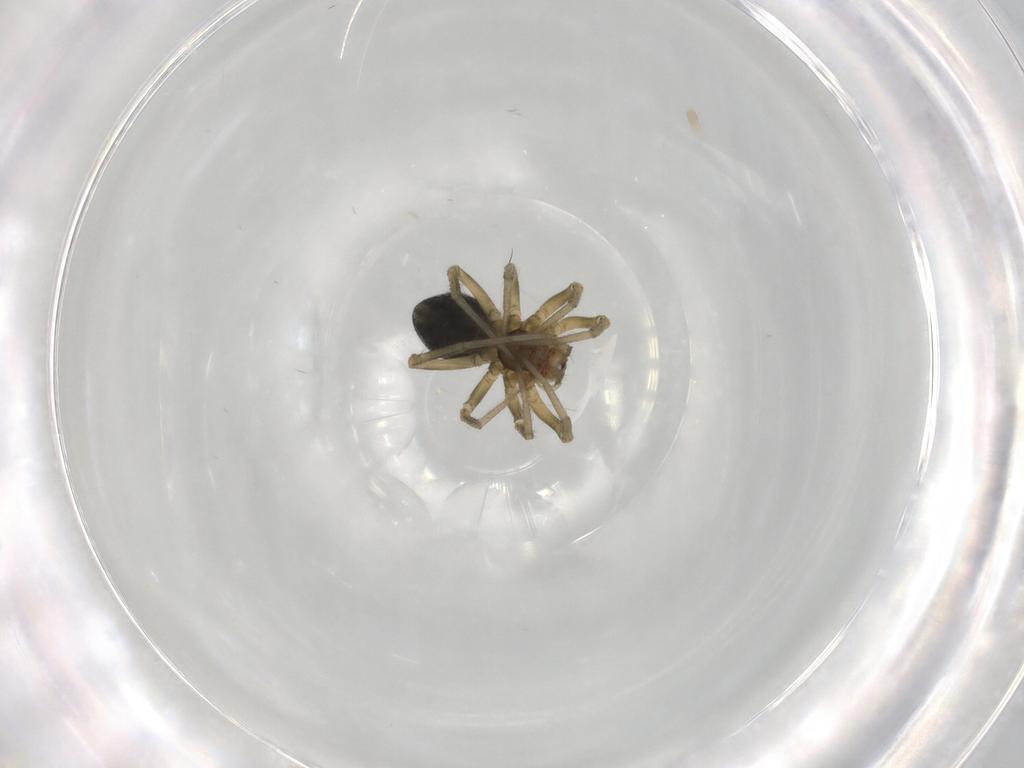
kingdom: Animalia
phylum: Arthropoda
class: Arachnida
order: Araneae
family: Linyphiidae
